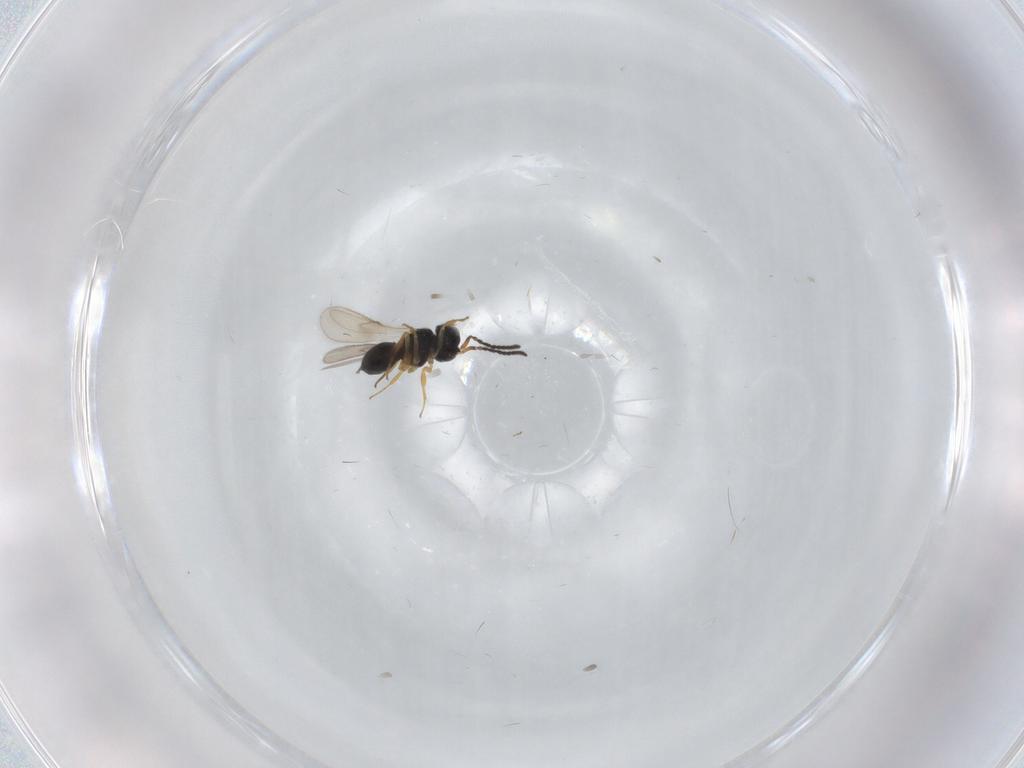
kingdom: Animalia
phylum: Arthropoda
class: Insecta
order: Hymenoptera
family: Scelionidae
